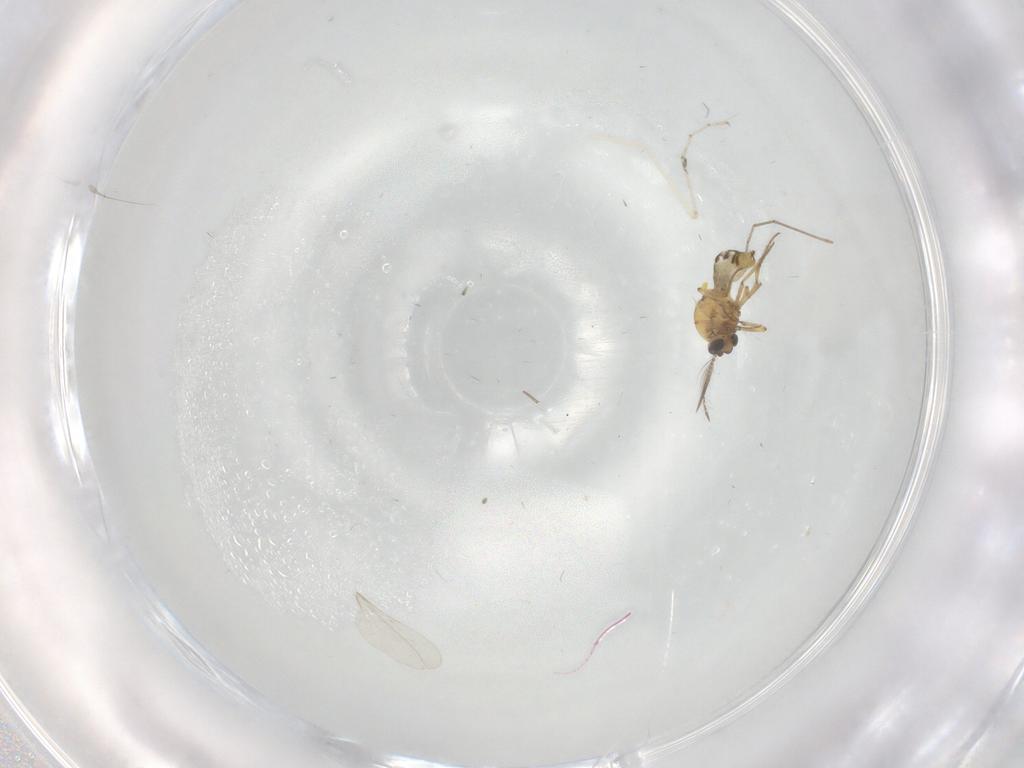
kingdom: Animalia
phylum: Arthropoda
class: Insecta
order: Diptera
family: Ceratopogonidae
